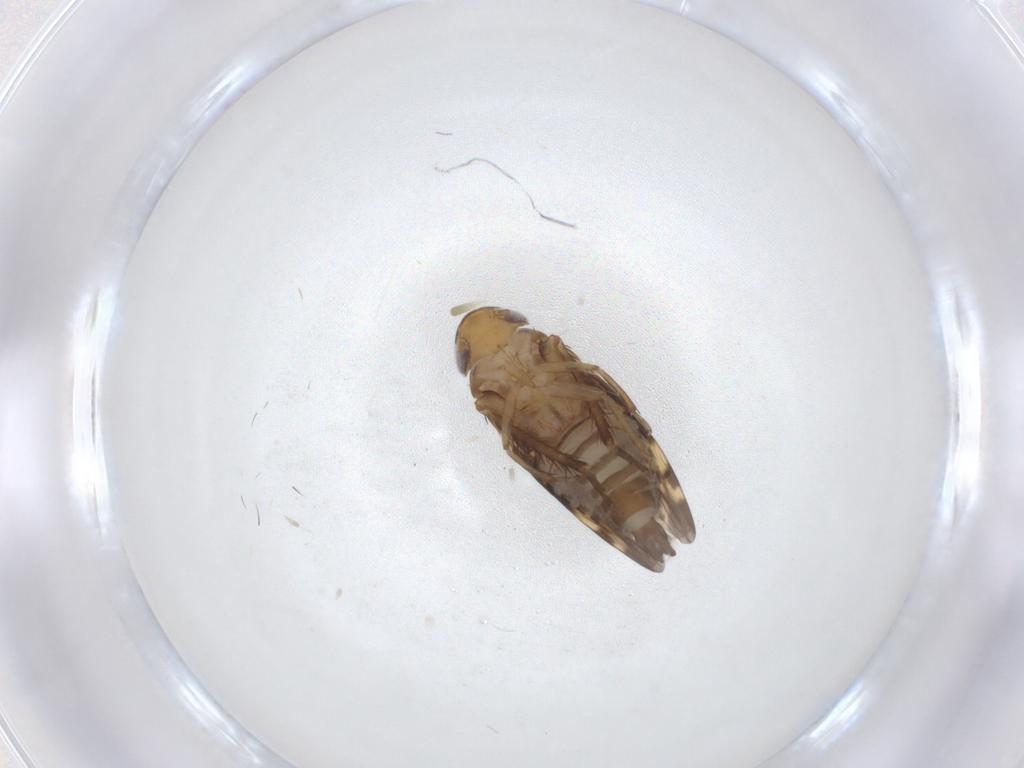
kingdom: Animalia
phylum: Arthropoda
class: Insecta
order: Hemiptera
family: Cicadellidae
